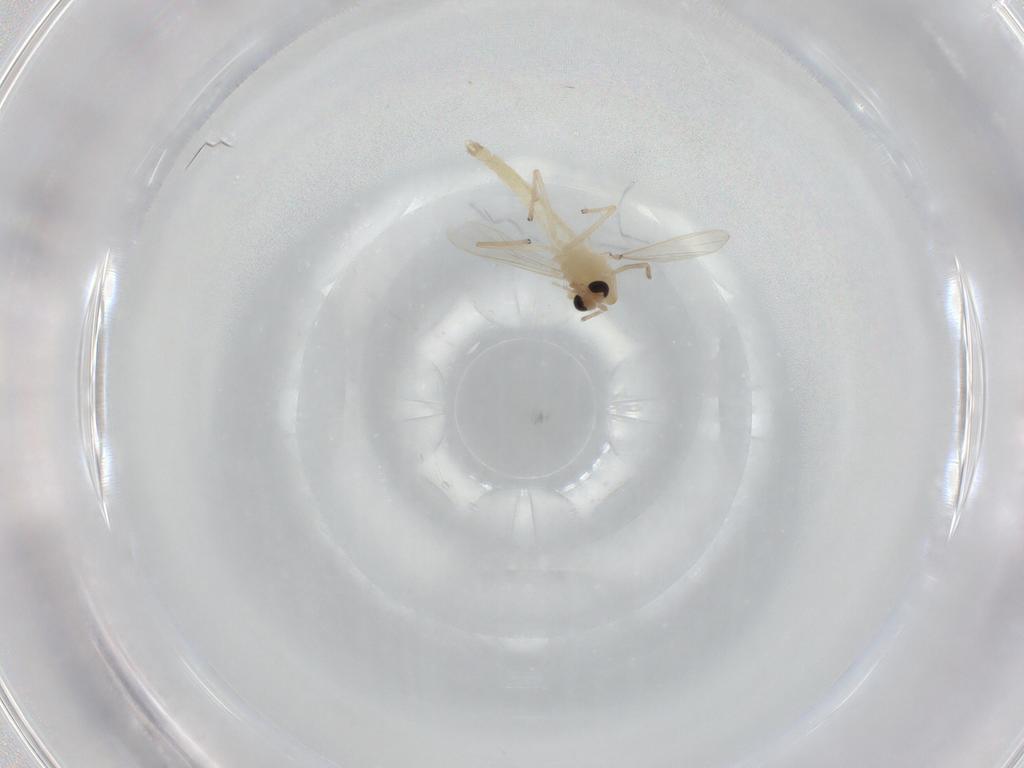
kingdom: Animalia
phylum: Arthropoda
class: Insecta
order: Diptera
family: Chironomidae
